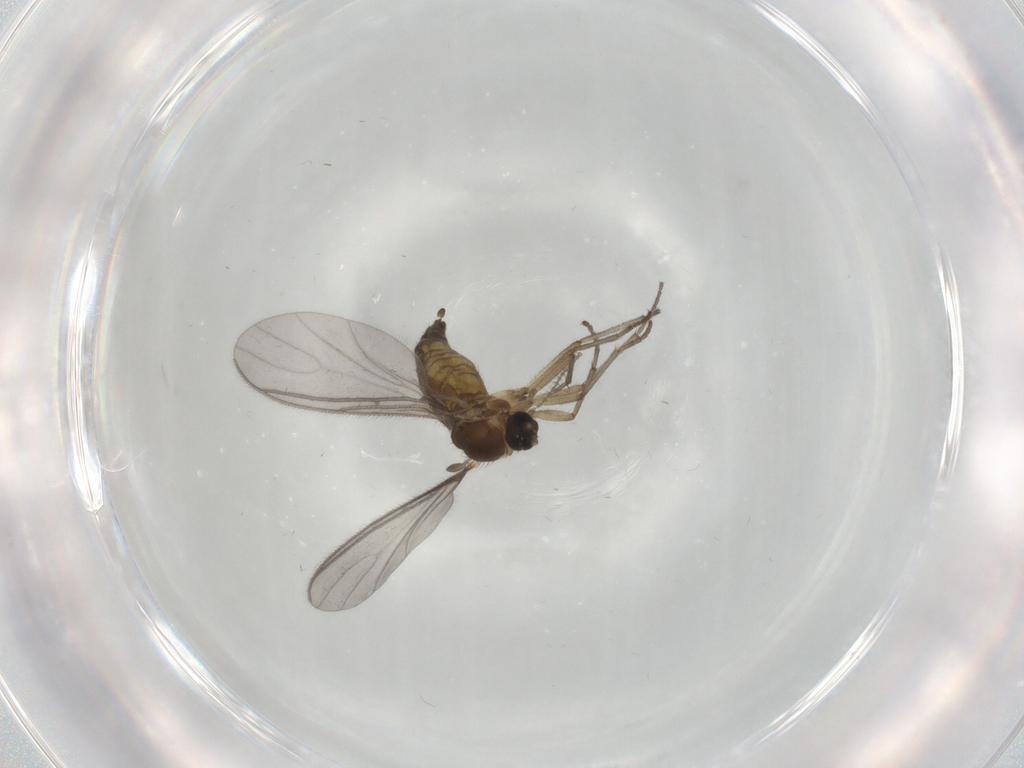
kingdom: Animalia
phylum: Arthropoda
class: Insecta
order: Diptera
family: Sciaridae
